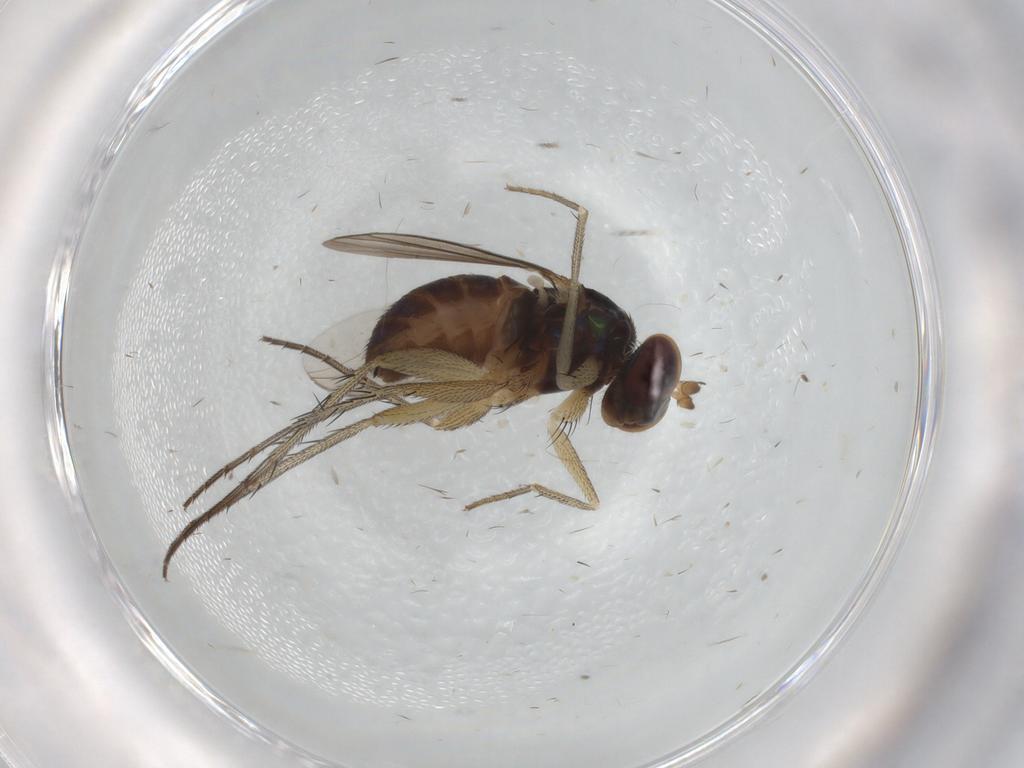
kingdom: Animalia
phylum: Arthropoda
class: Insecta
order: Diptera
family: Dolichopodidae
